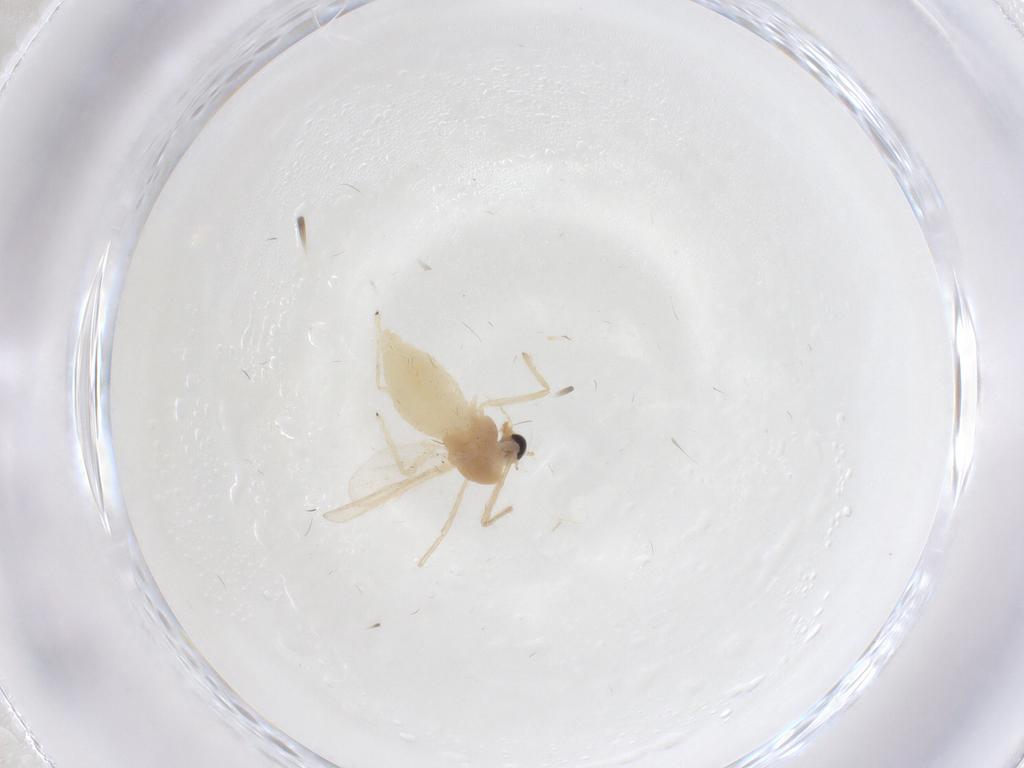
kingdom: Animalia
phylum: Arthropoda
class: Insecta
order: Diptera
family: Chironomidae
